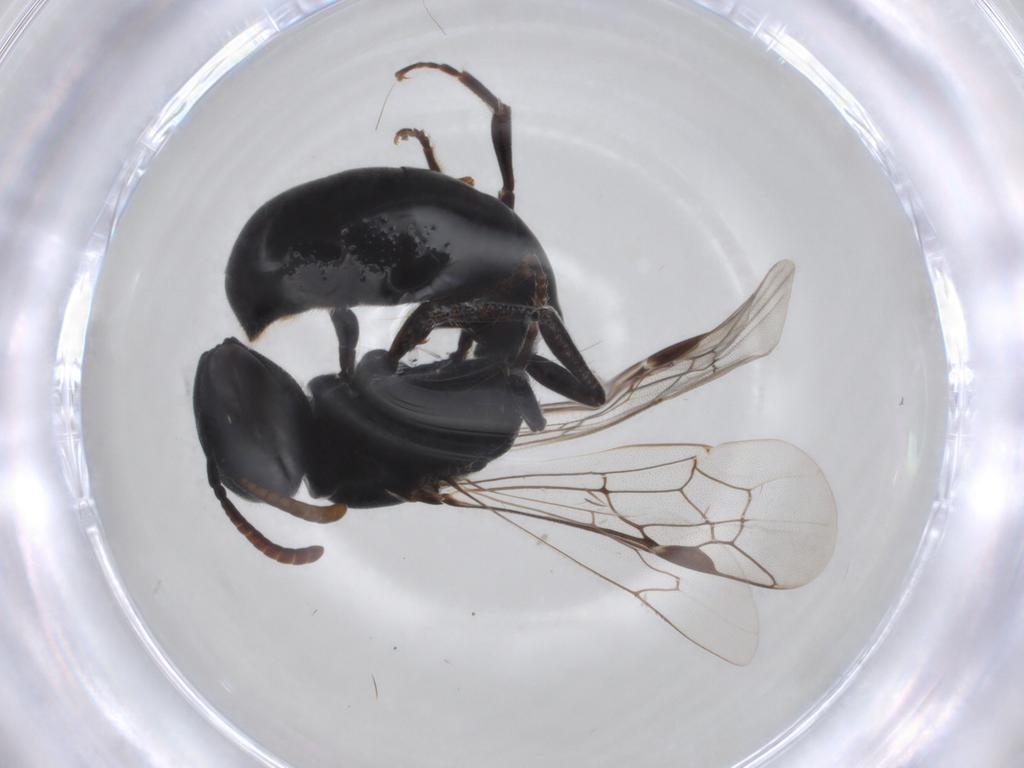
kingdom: Animalia
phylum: Arthropoda
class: Insecta
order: Hymenoptera
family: Colletidae
